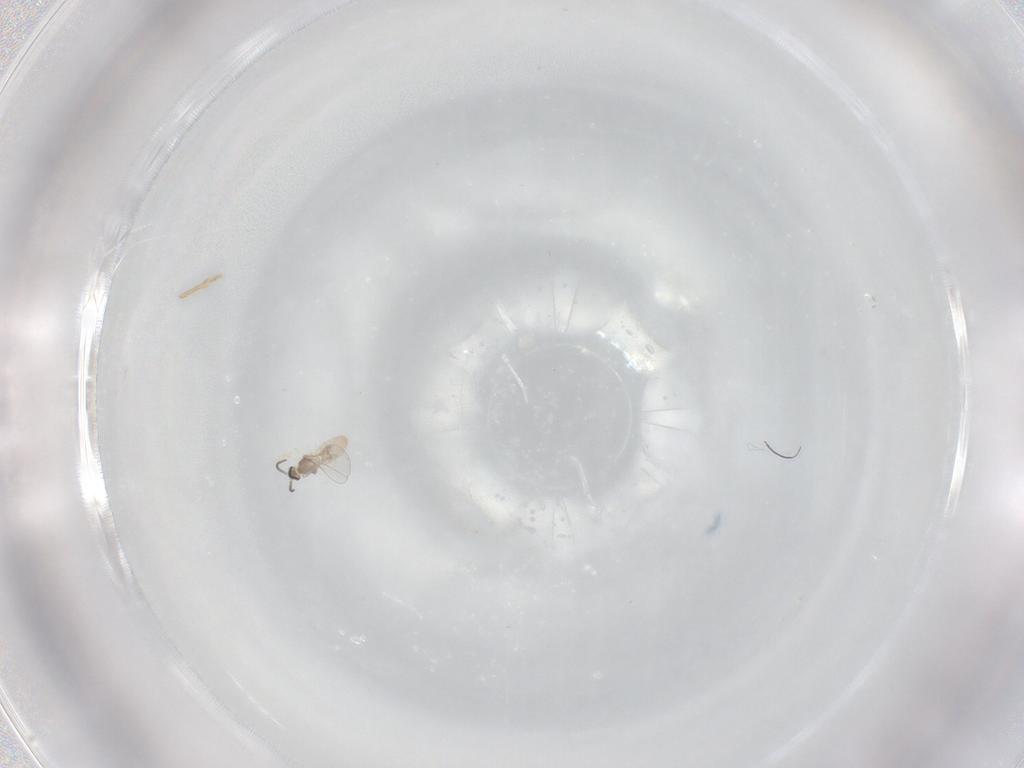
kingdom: Animalia
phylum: Arthropoda
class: Insecta
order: Diptera
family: Cecidomyiidae
